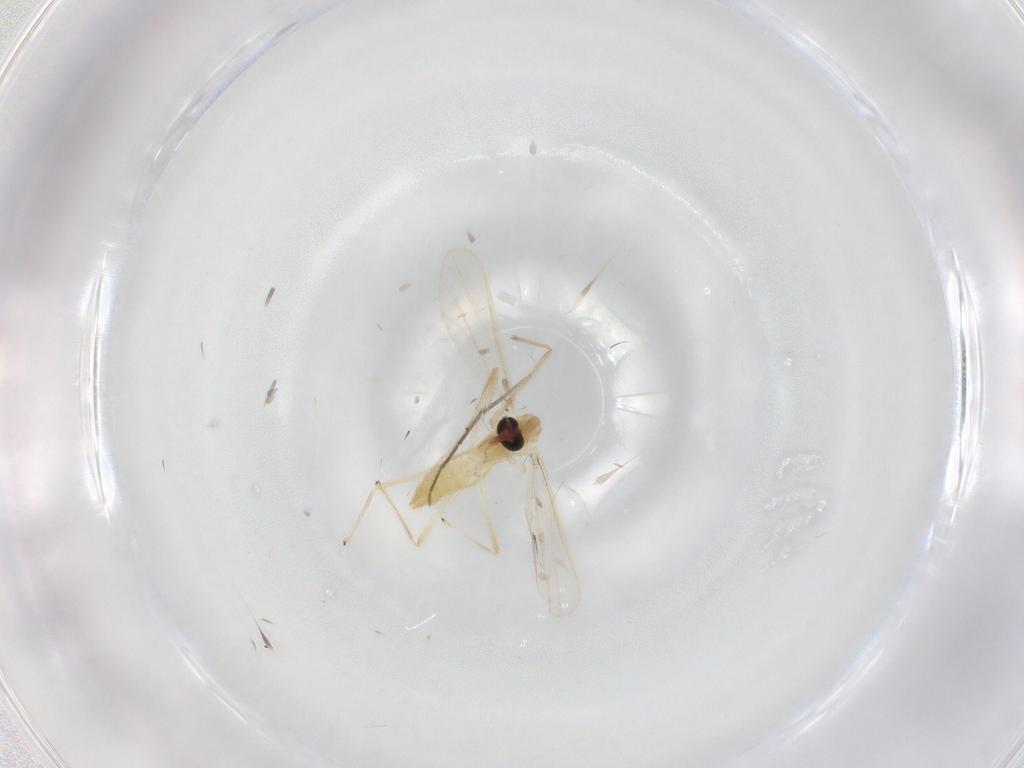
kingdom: Animalia
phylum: Arthropoda
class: Insecta
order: Diptera
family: Chironomidae
